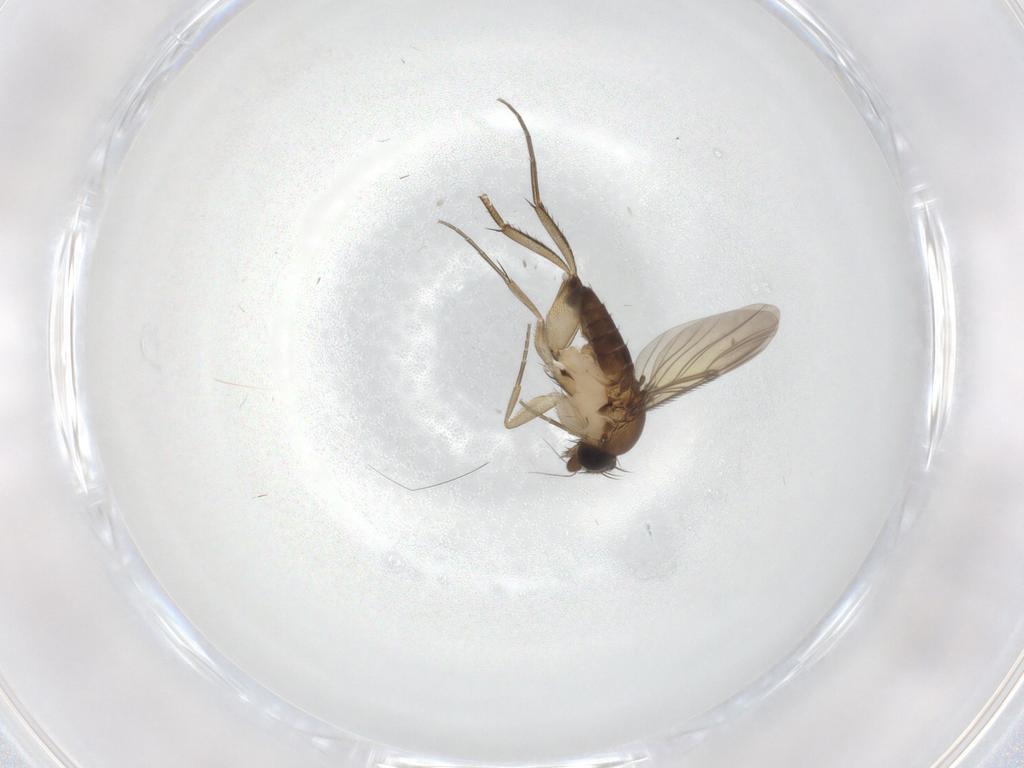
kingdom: Animalia
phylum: Arthropoda
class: Insecta
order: Diptera
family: Phoridae
